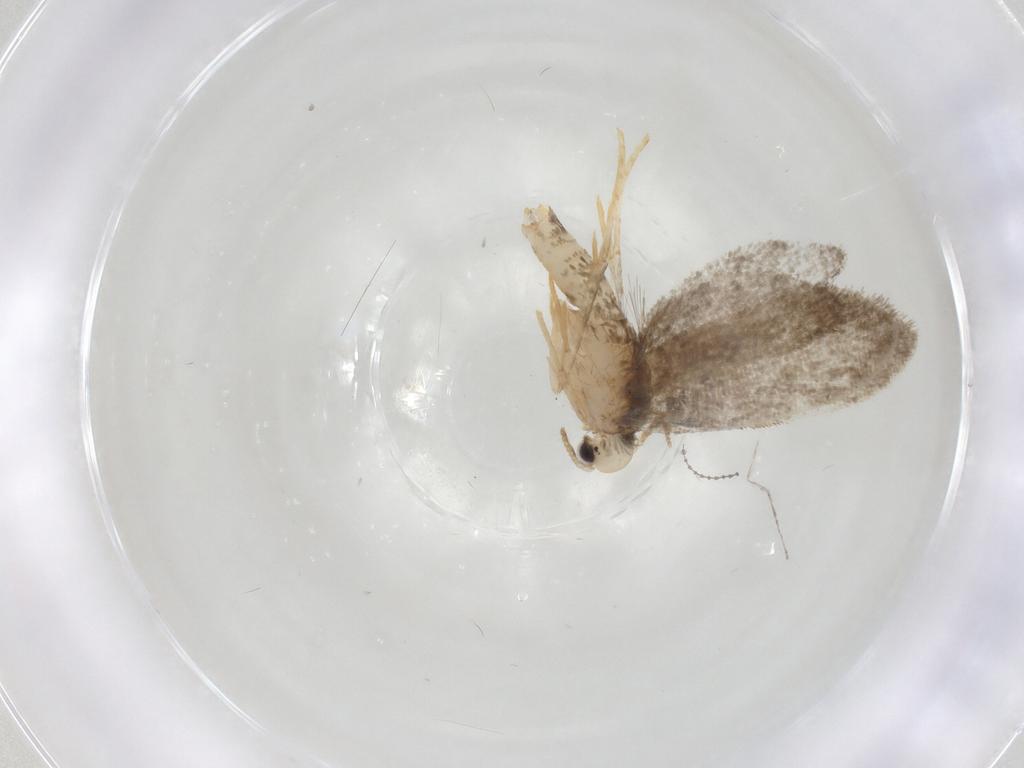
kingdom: Animalia
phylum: Arthropoda
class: Insecta
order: Lepidoptera
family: Psychidae
